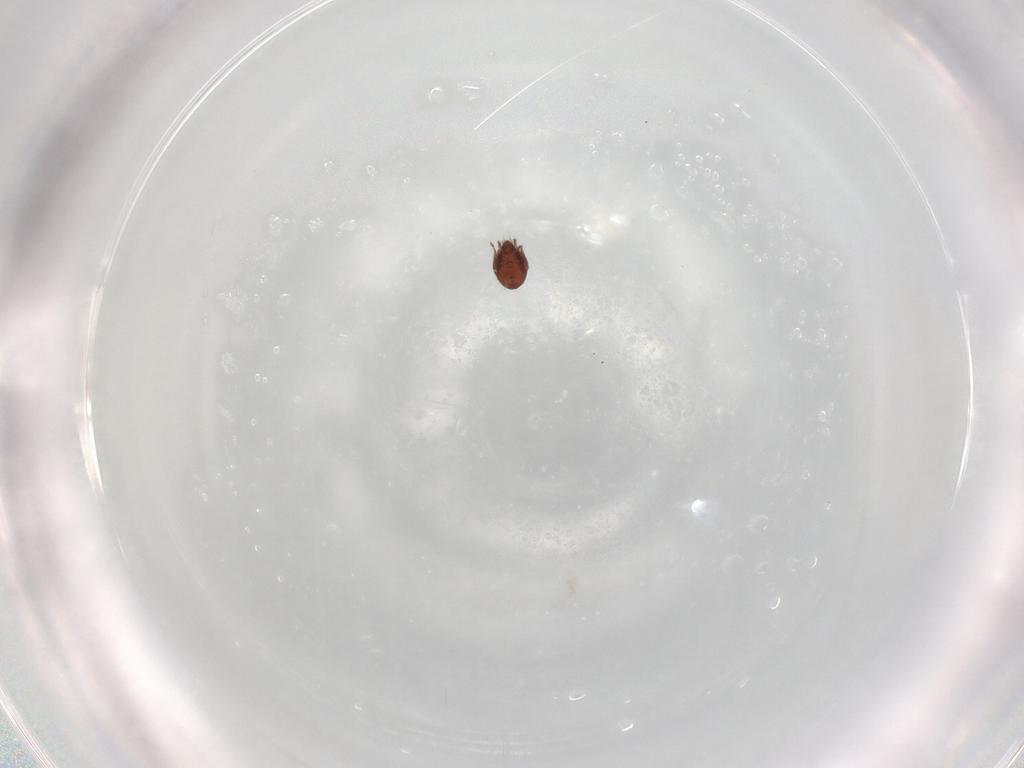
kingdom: Animalia
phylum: Arthropoda
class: Arachnida
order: Sarcoptiformes
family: Ceratozetidae
